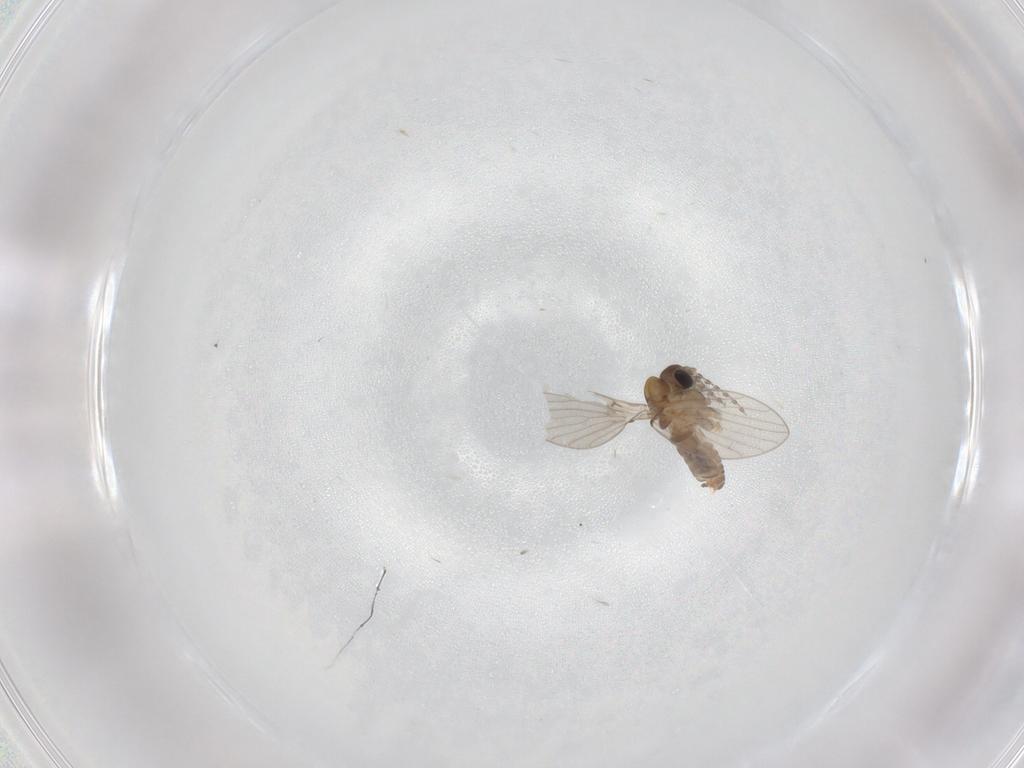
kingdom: Animalia
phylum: Arthropoda
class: Insecta
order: Diptera
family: Psychodidae
